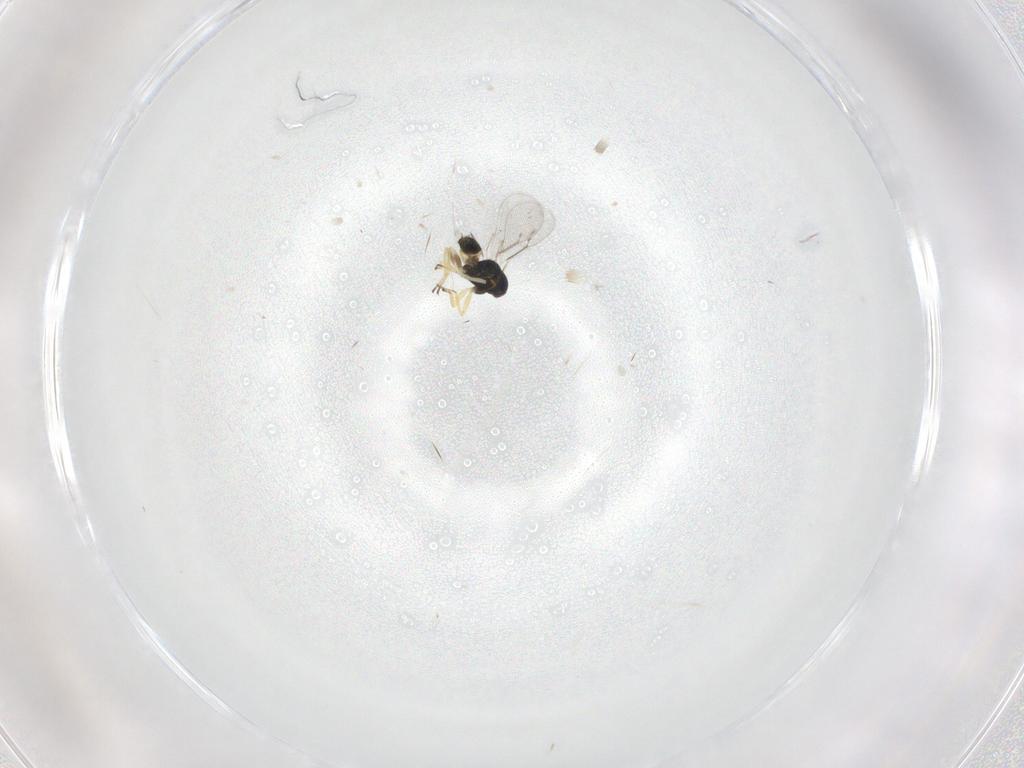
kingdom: Animalia
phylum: Arthropoda
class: Insecta
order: Hymenoptera
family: Eulophidae
